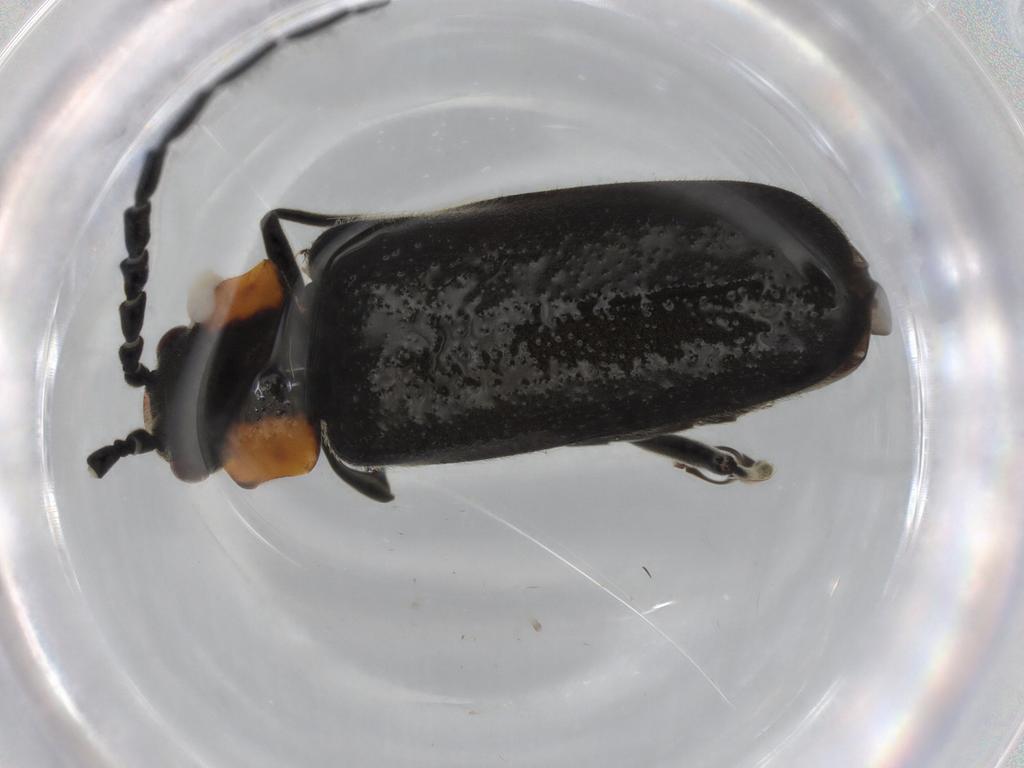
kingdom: Animalia
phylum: Arthropoda
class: Insecta
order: Coleoptera
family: Cantharidae
